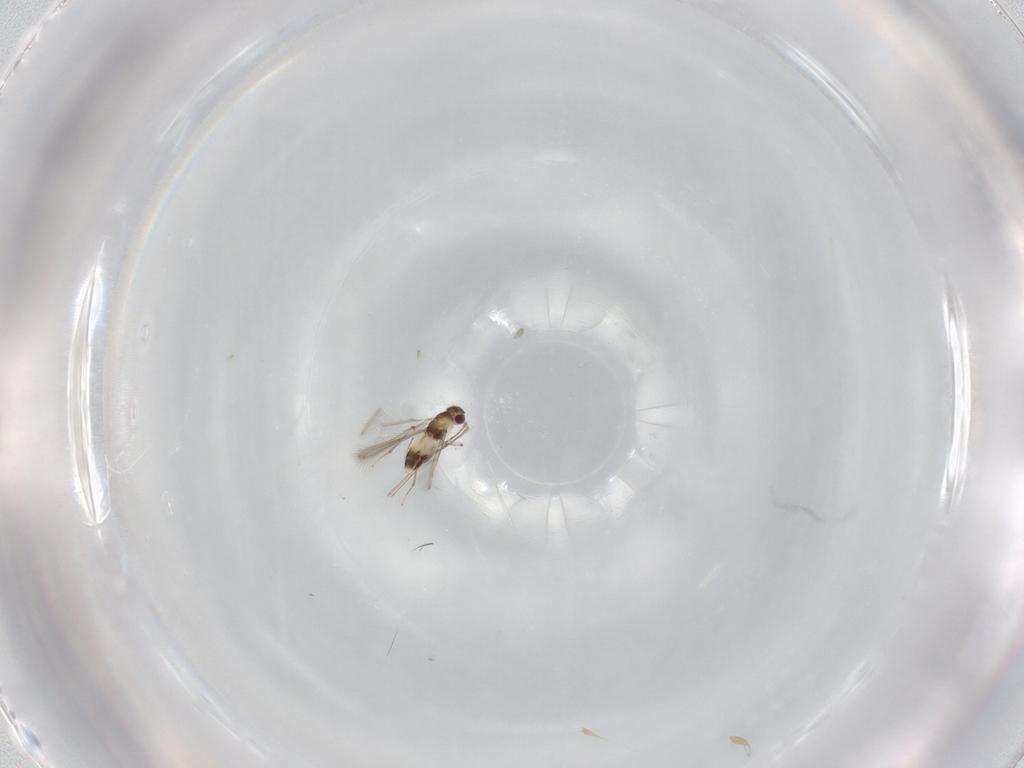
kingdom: Animalia
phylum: Arthropoda
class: Insecta
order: Hymenoptera
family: Mymaridae
